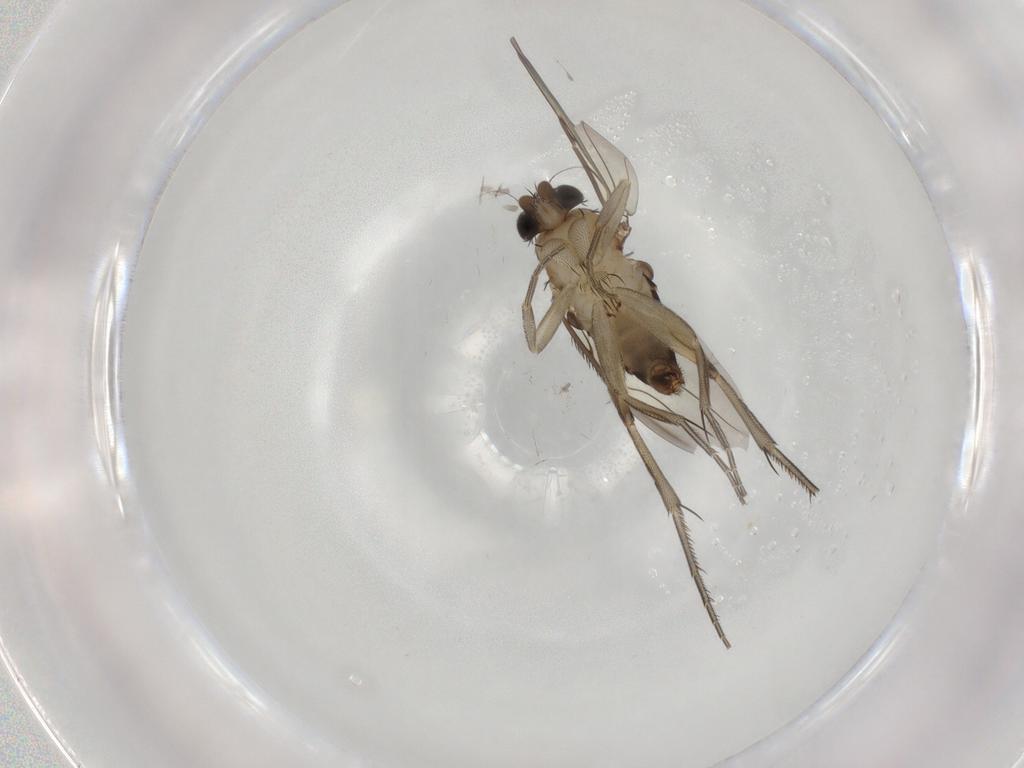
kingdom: Animalia
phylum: Arthropoda
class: Insecta
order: Diptera
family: Phoridae
